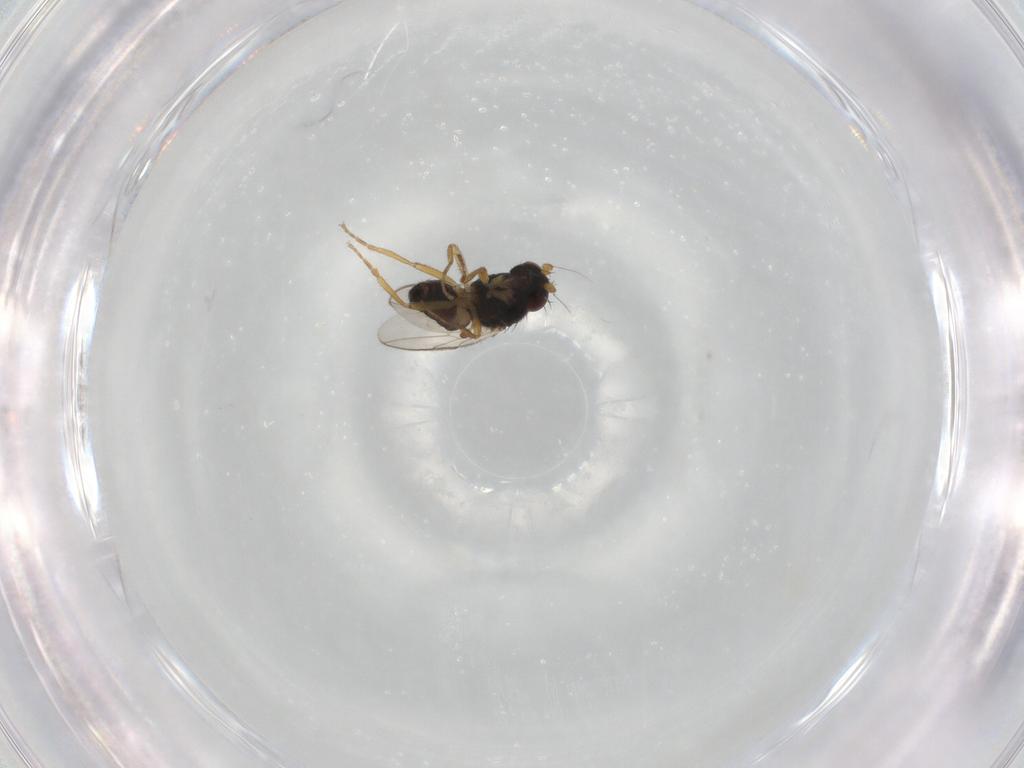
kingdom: Animalia
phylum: Arthropoda
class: Insecta
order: Diptera
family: Sphaeroceridae
